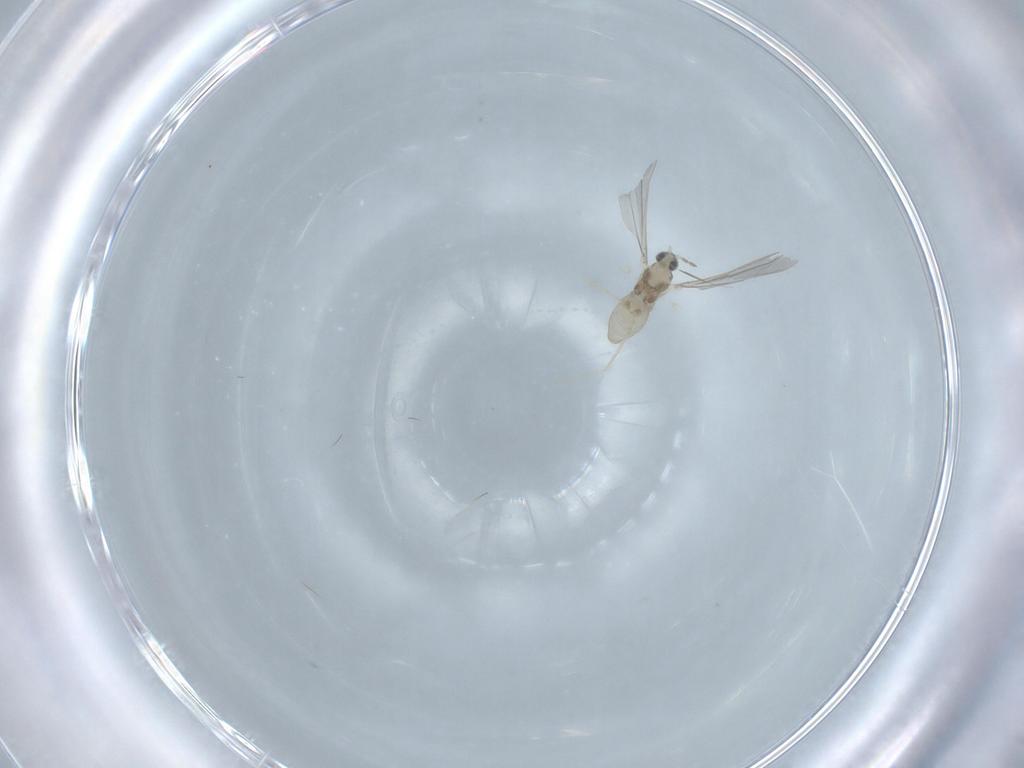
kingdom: Animalia
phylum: Arthropoda
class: Insecta
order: Diptera
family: Cecidomyiidae
